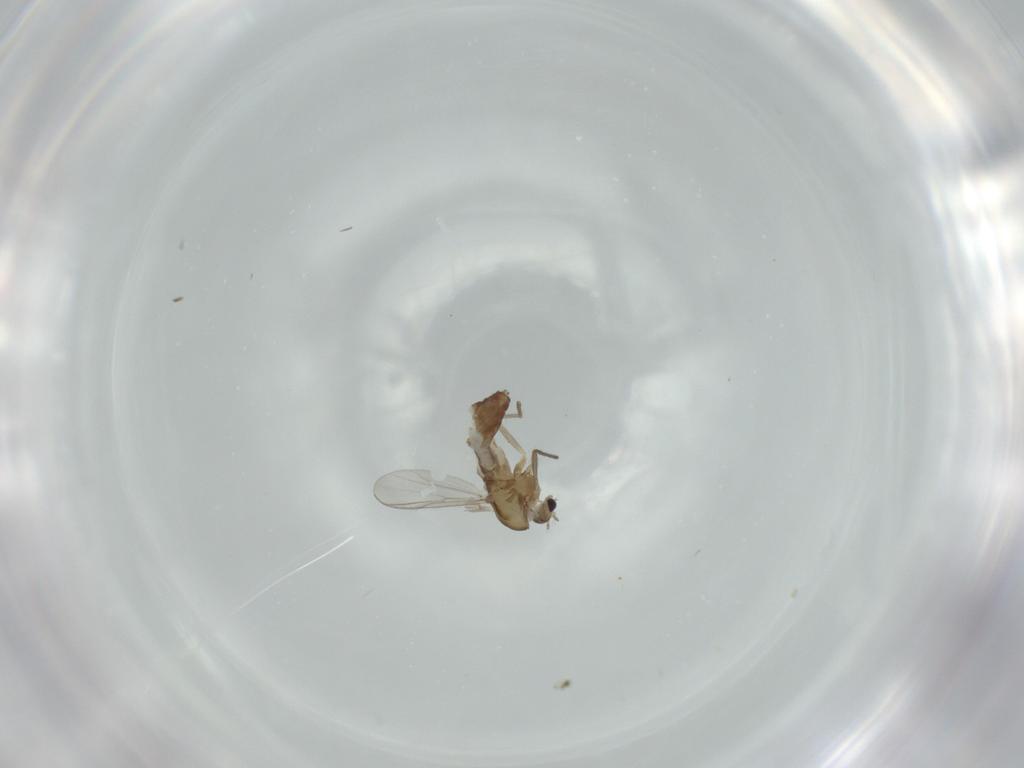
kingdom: Animalia
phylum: Arthropoda
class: Insecta
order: Diptera
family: Chironomidae
